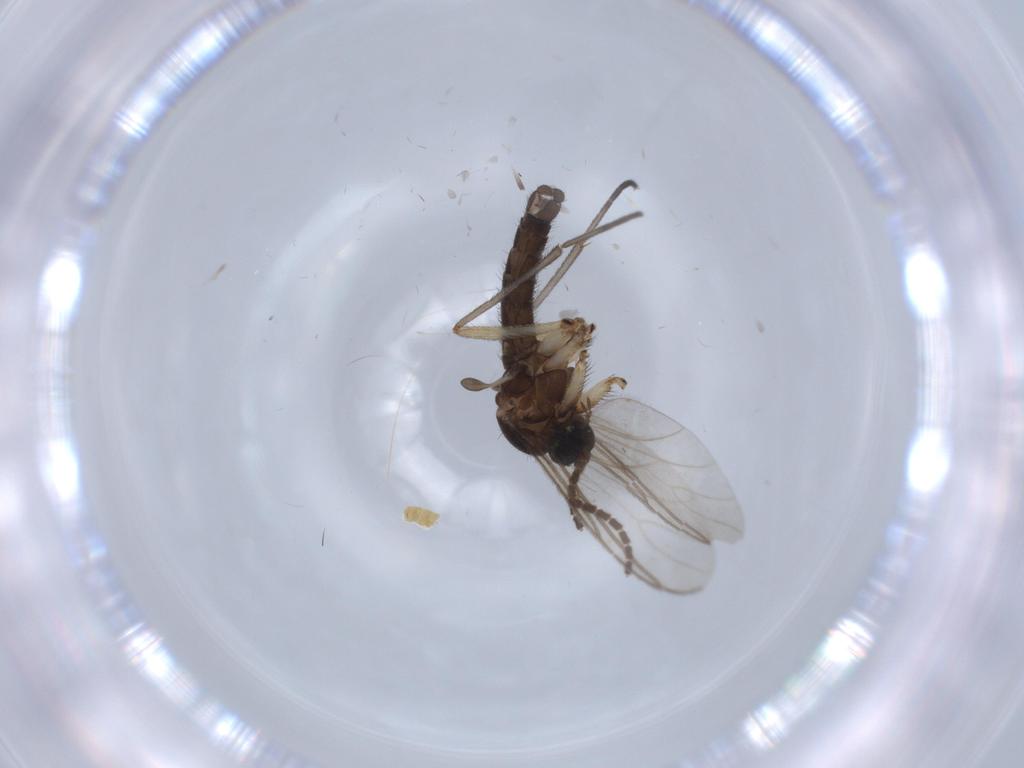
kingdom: Animalia
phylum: Arthropoda
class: Insecta
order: Diptera
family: Cecidomyiidae
